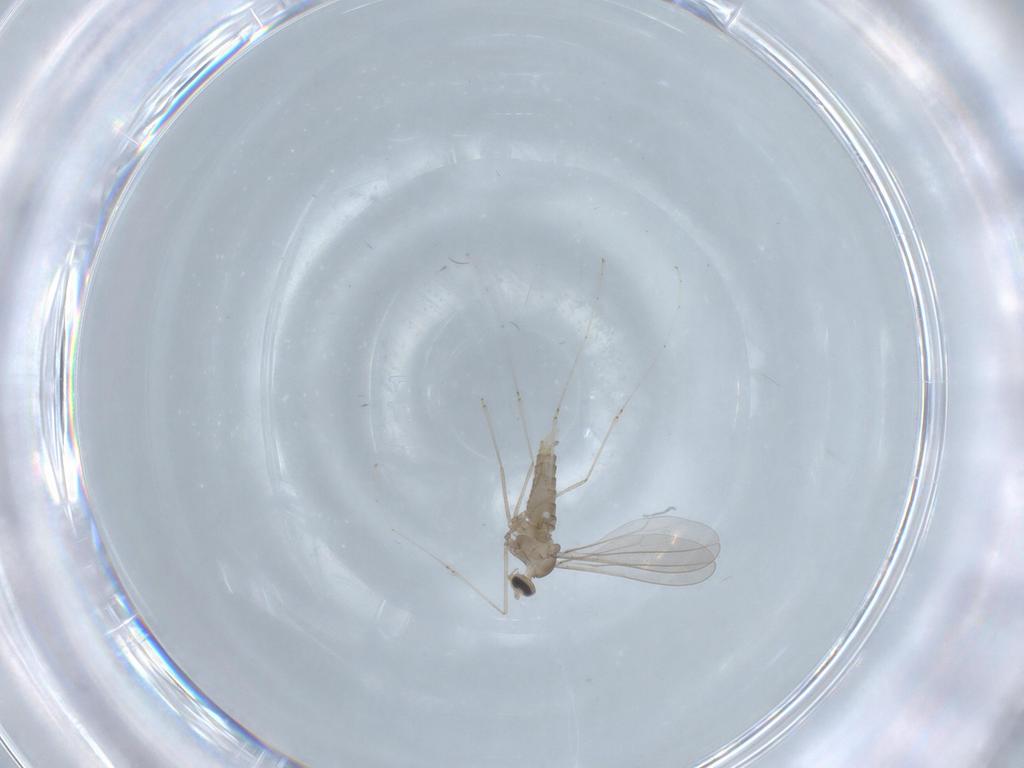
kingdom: Animalia
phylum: Arthropoda
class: Insecta
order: Diptera
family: Cecidomyiidae
